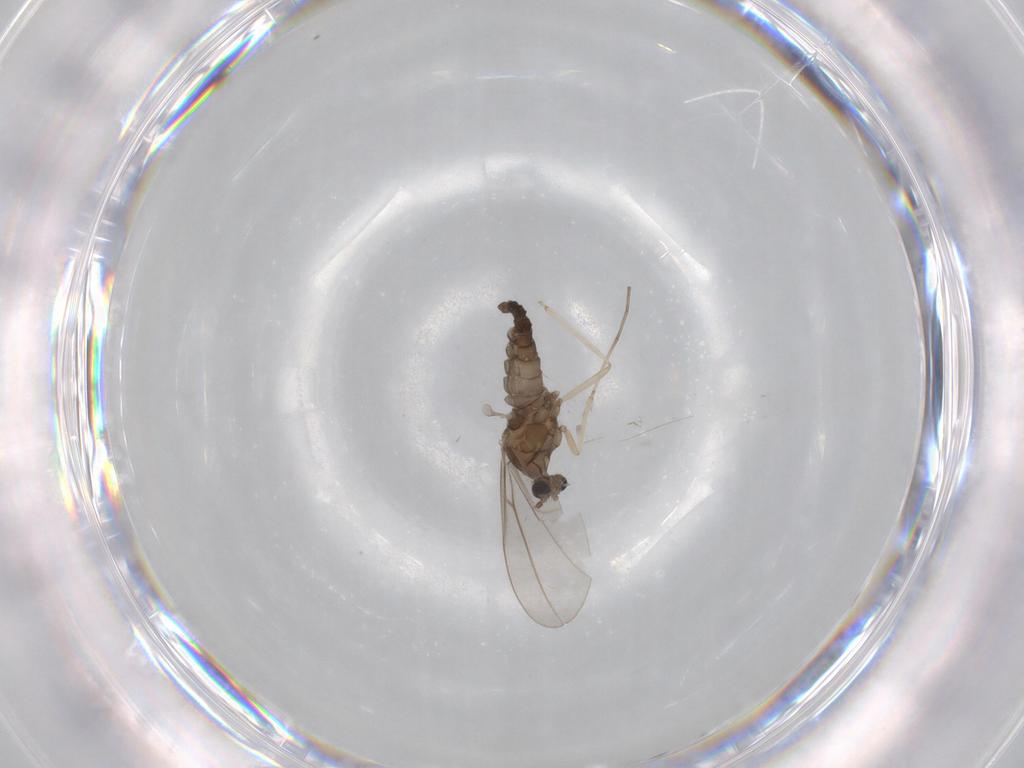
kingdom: Animalia
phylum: Arthropoda
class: Insecta
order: Diptera
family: Cecidomyiidae
